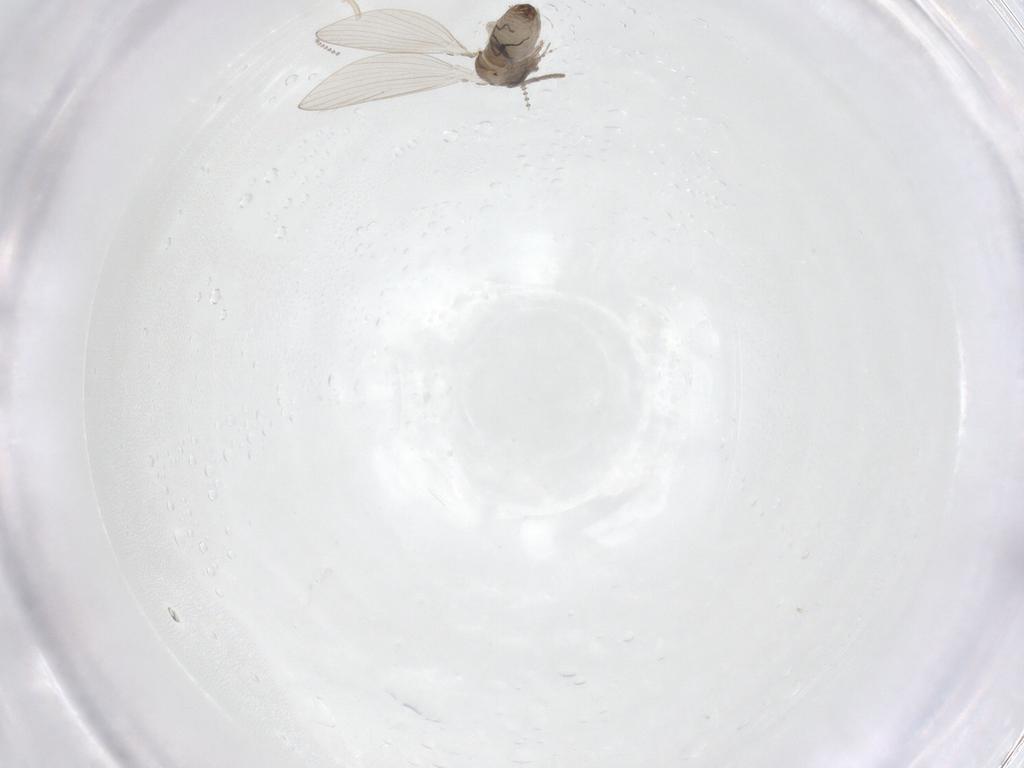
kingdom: Animalia
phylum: Arthropoda
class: Insecta
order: Diptera
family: Psychodidae
